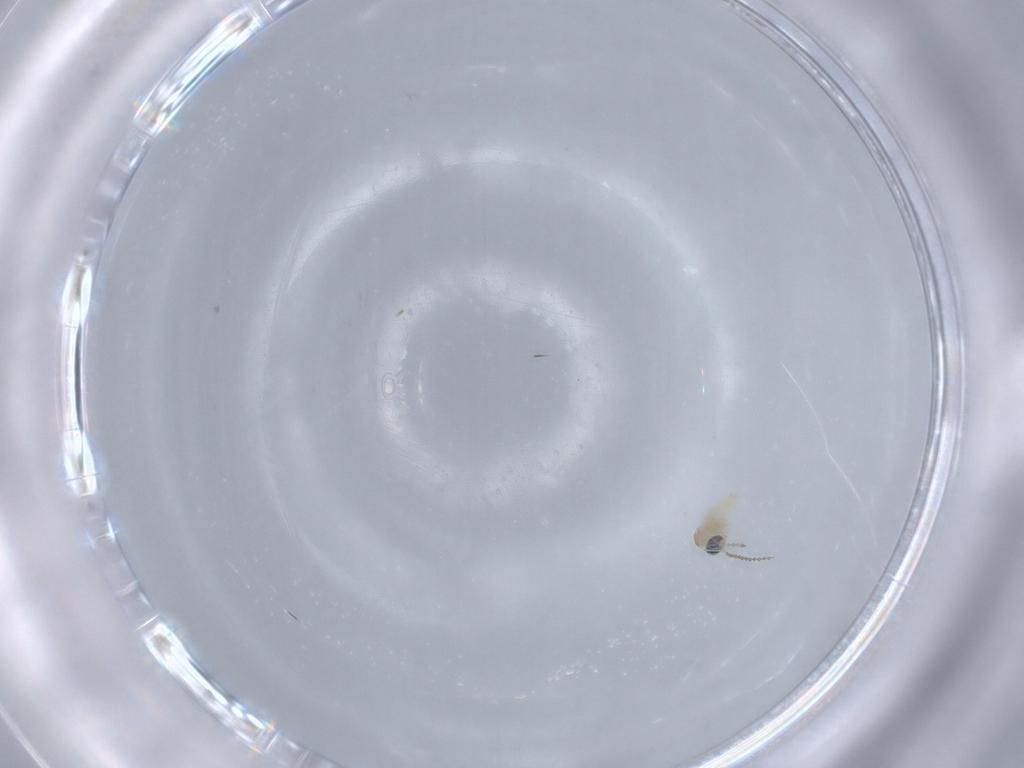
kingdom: Animalia
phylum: Arthropoda
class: Insecta
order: Diptera
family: Cecidomyiidae
